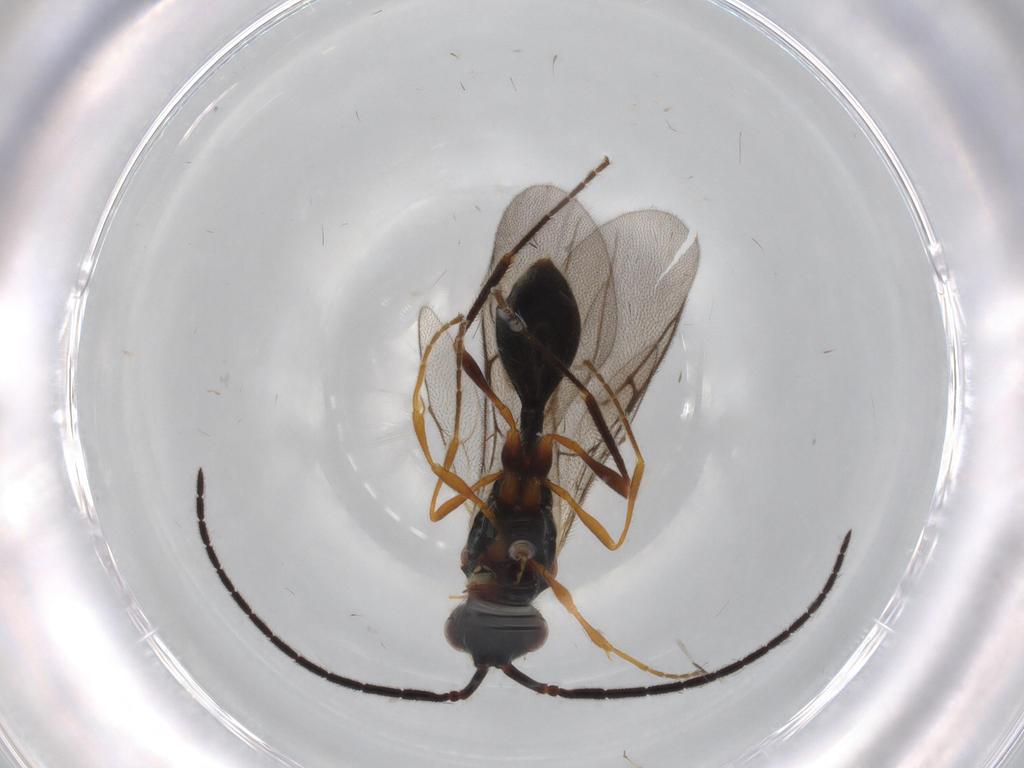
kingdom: Animalia
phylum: Arthropoda
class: Insecta
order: Hymenoptera
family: Diapriidae
